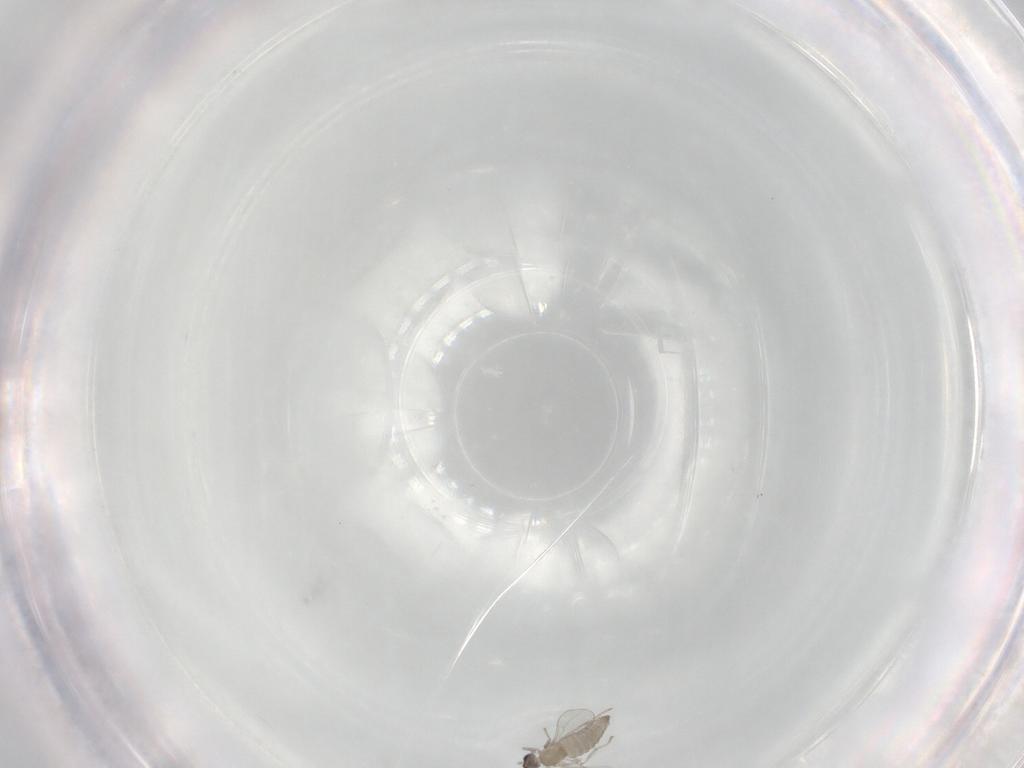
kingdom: Animalia
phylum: Arthropoda
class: Insecta
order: Diptera
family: Cecidomyiidae
